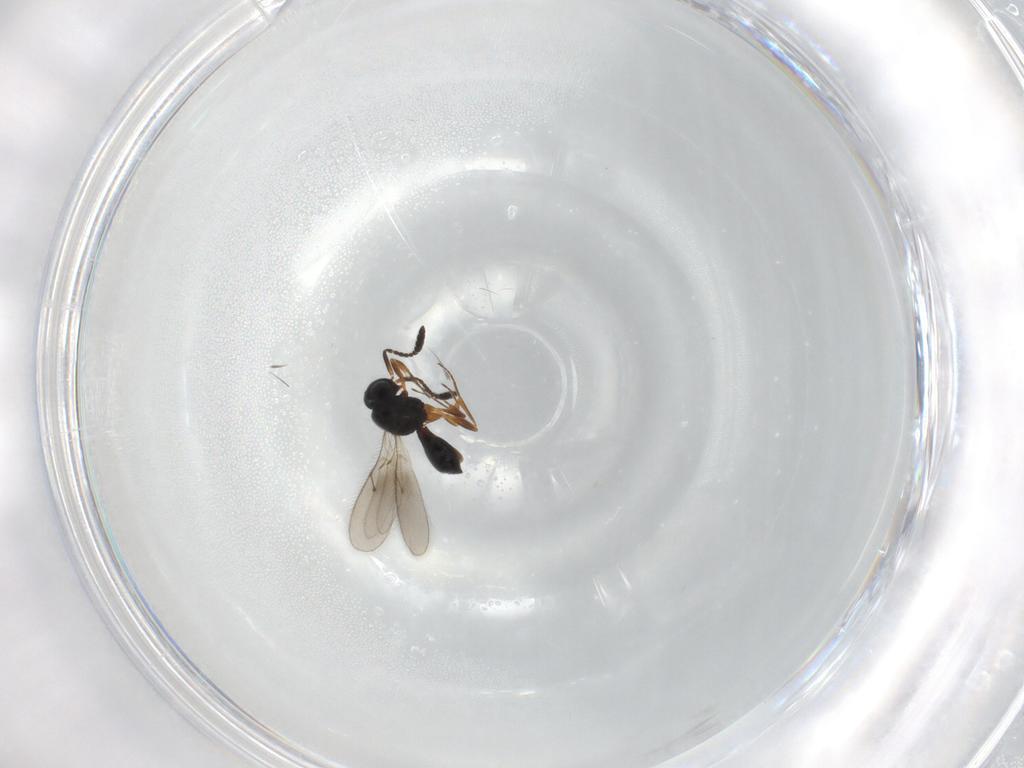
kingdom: Animalia
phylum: Arthropoda
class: Insecta
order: Hymenoptera
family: Scelionidae
